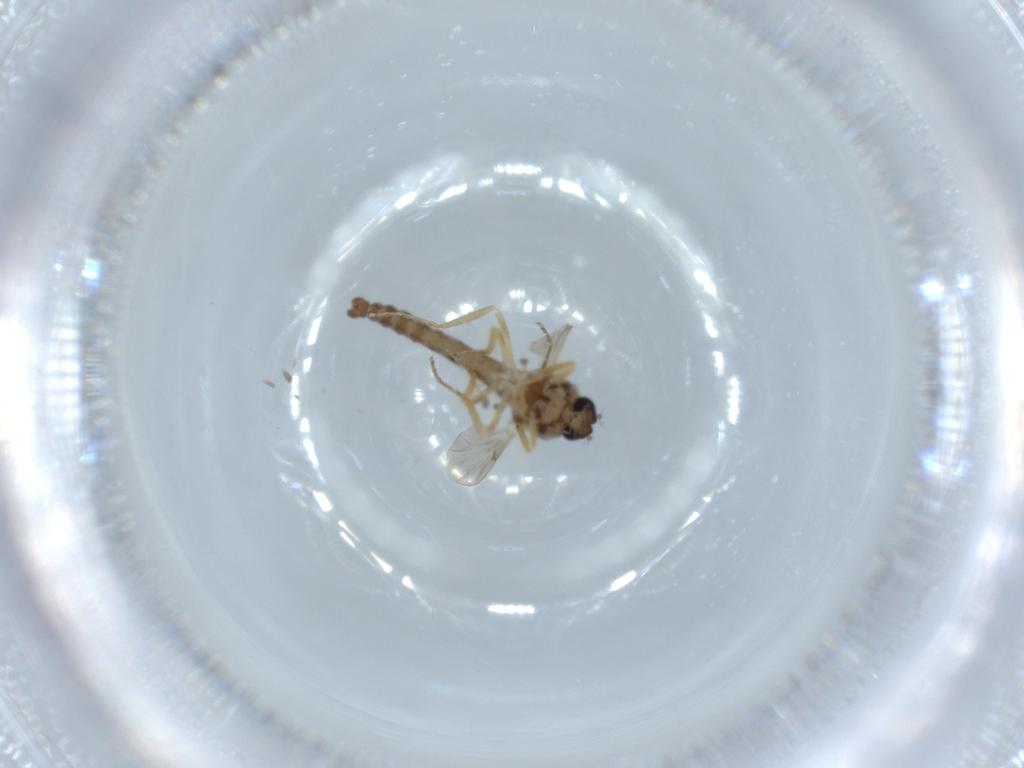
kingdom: Animalia
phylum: Arthropoda
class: Insecta
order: Diptera
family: Ceratopogonidae
